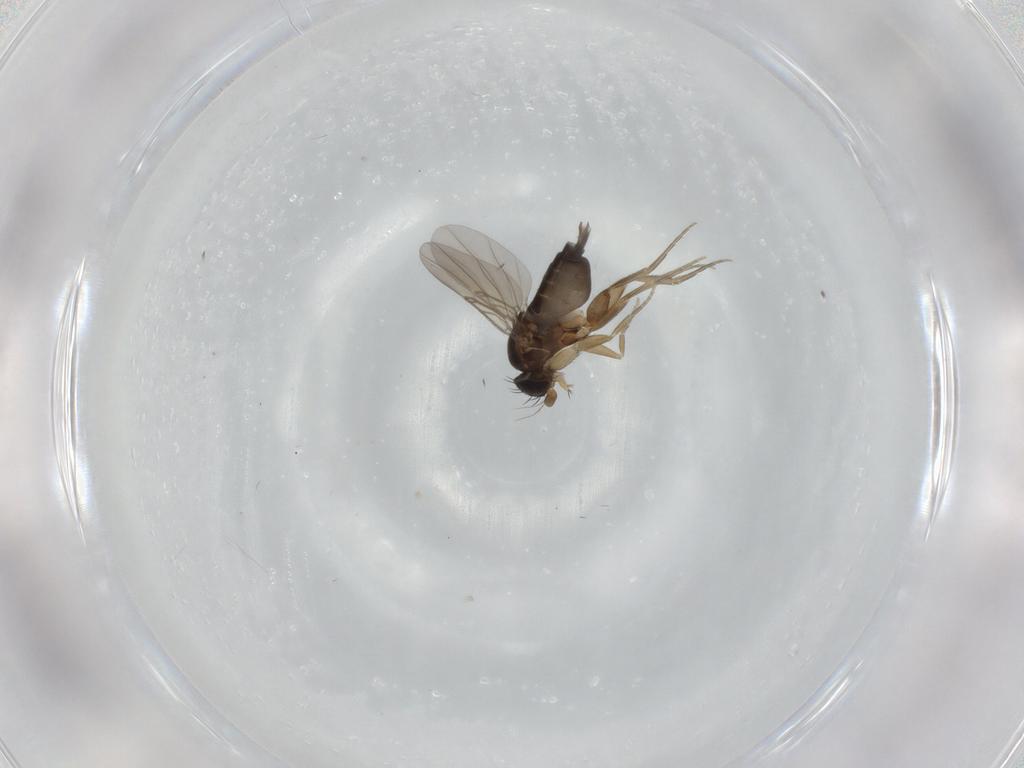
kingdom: Animalia
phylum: Arthropoda
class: Insecta
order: Diptera
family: Phoridae
